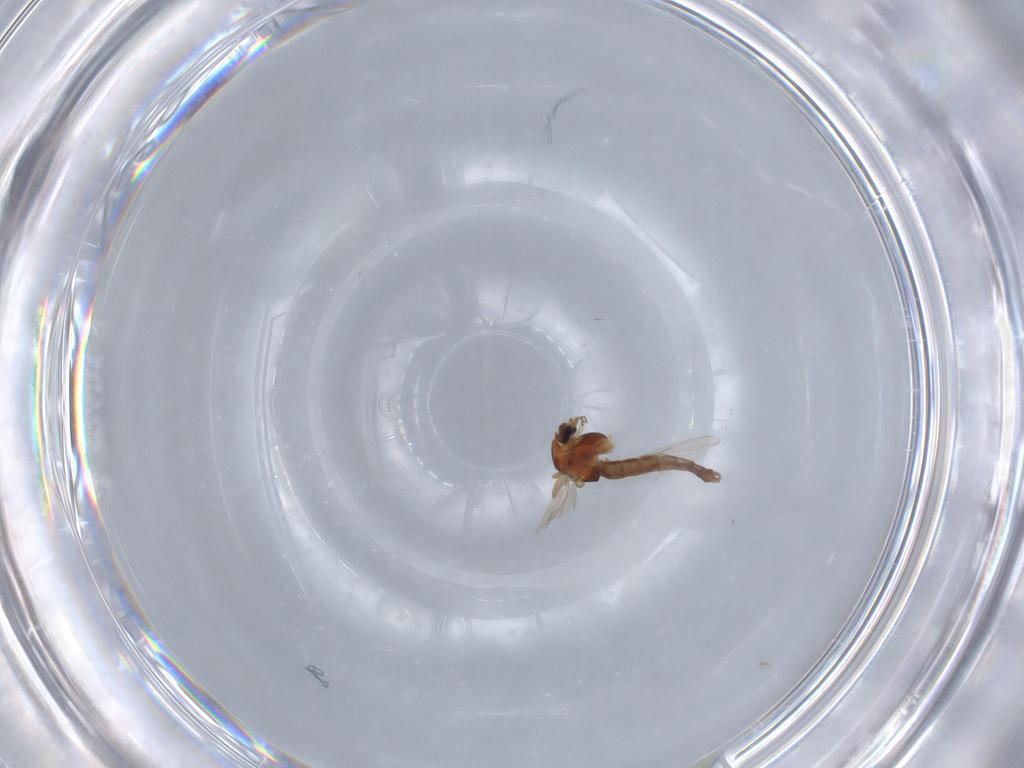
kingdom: Animalia
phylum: Arthropoda
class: Insecta
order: Diptera
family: Chironomidae
